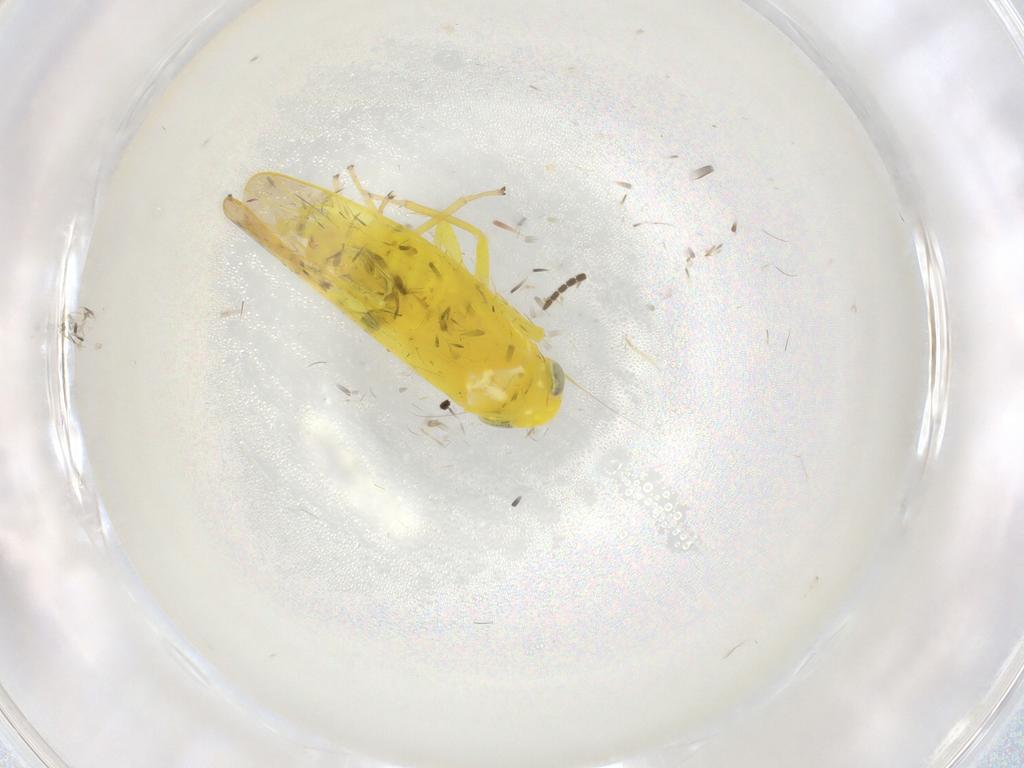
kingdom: Animalia
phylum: Arthropoda
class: Insecta
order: Hemiptera
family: Cicadellidae
